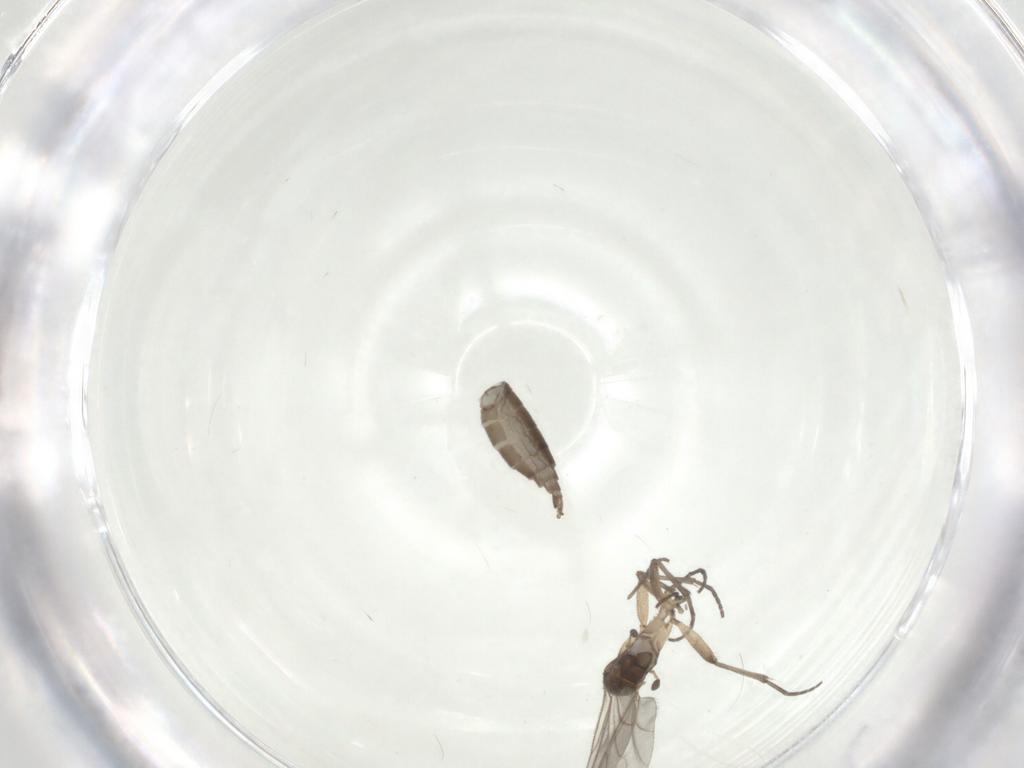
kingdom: Animalia
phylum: Arthropoda
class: Insecta
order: Diptera
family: Sciaridae
